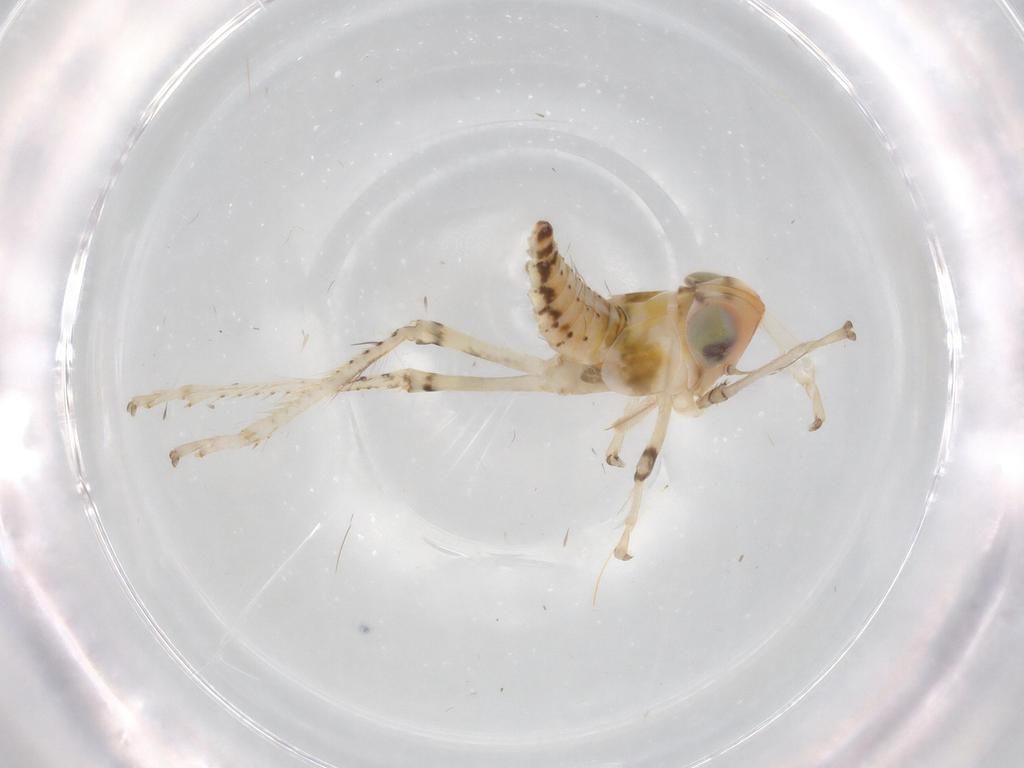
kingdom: Animalia
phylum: Arthropoda
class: Insecta
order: Hemiptera
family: Cicadellidae
